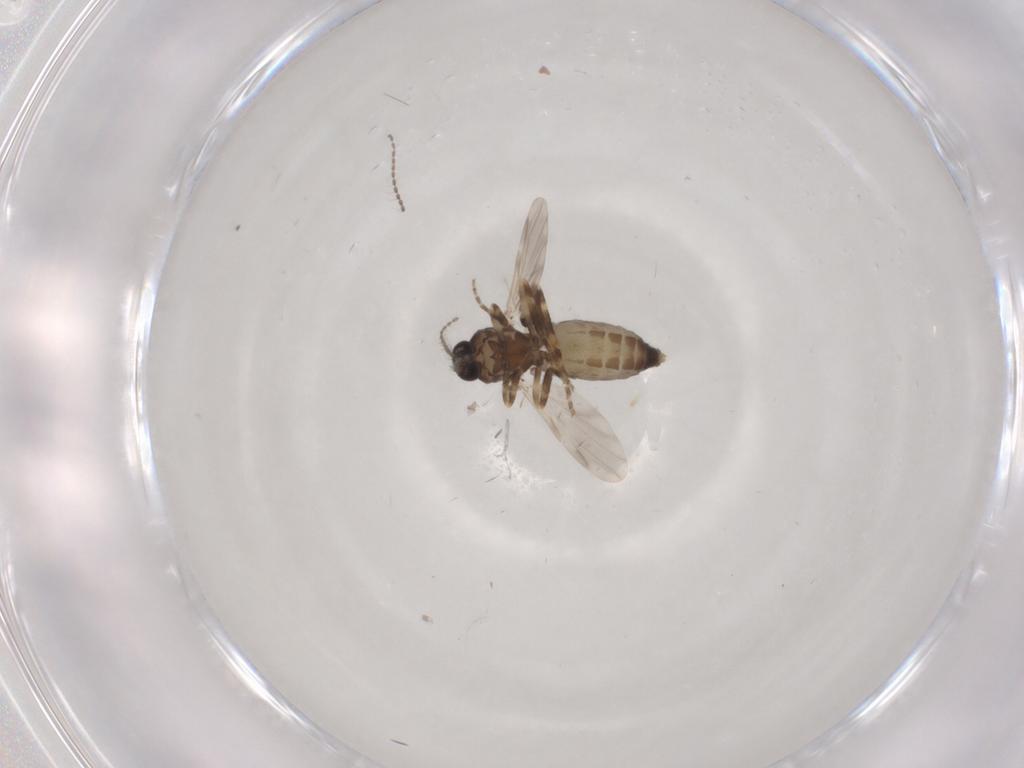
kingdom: Animalia
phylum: Arthropoda
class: Insecta
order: Diptera
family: Ceratopogonidae
